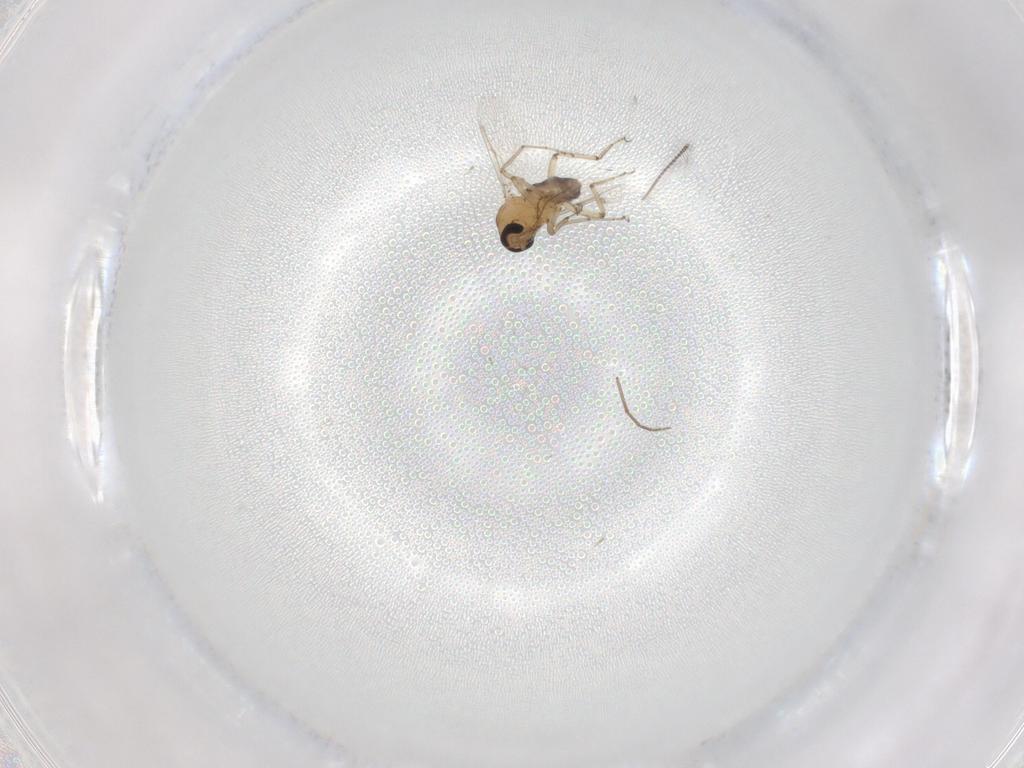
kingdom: Animalia
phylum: Arthropoda
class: Insecta
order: Diptera
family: Ceratopogonidae
